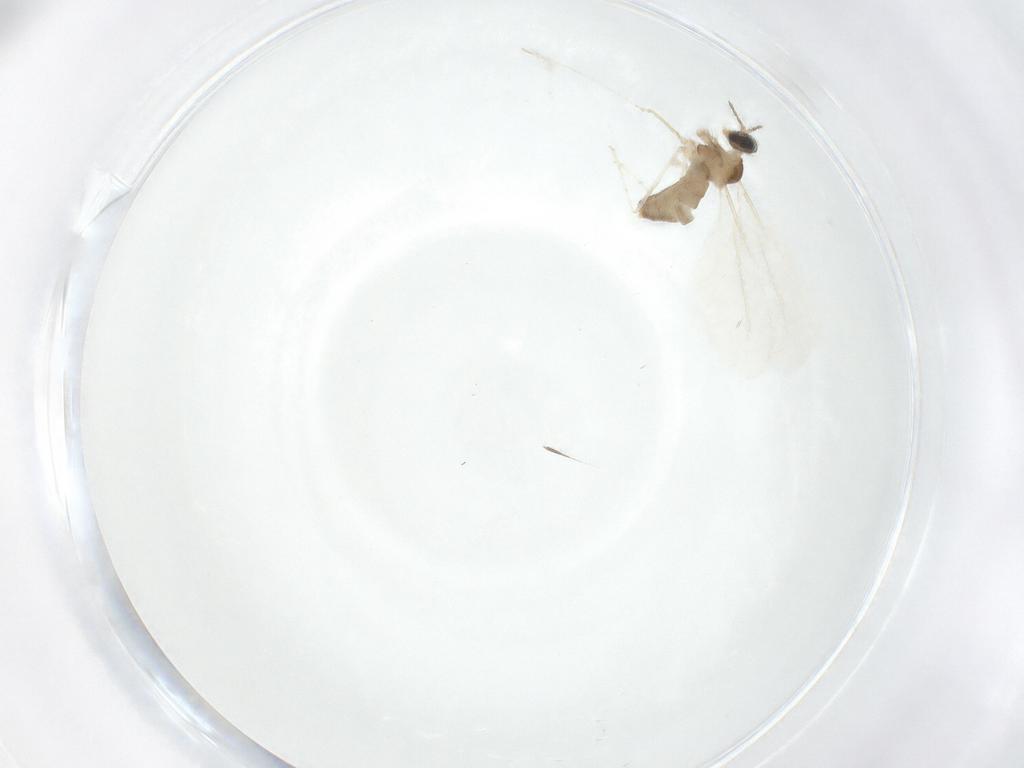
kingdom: Animalia
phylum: Arthropoda
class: Insecta
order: Diptera
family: Cecidomyiidae
